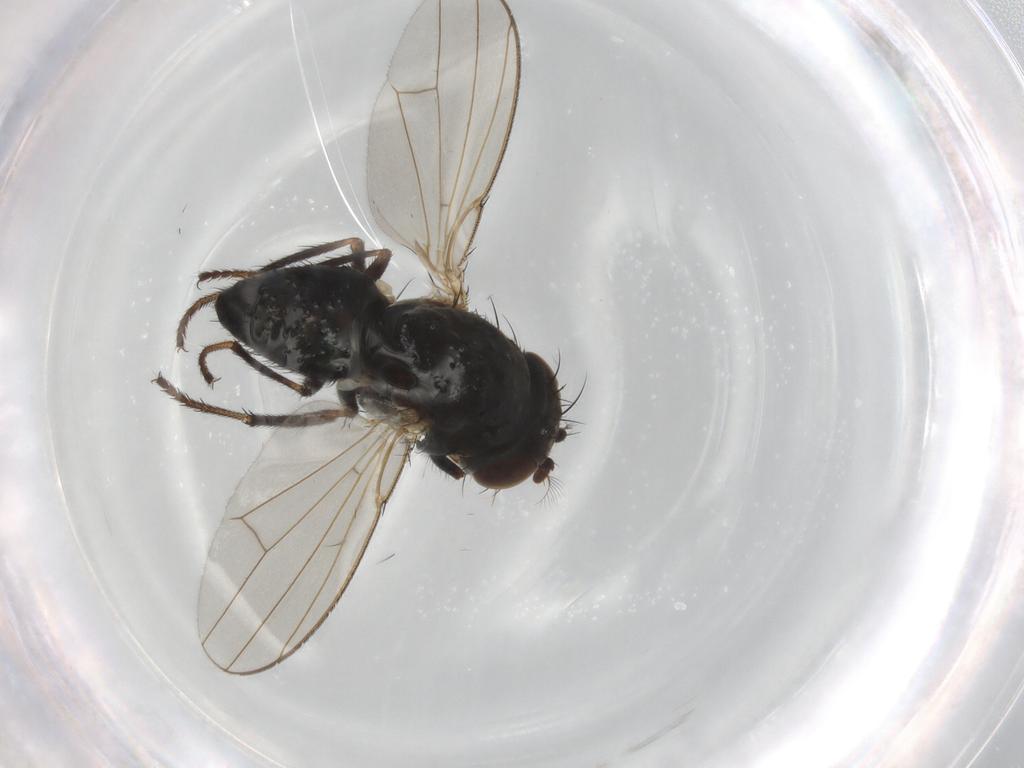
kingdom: Animalia
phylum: Arthropoda
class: Insecta
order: Diptera
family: Ephydridae
